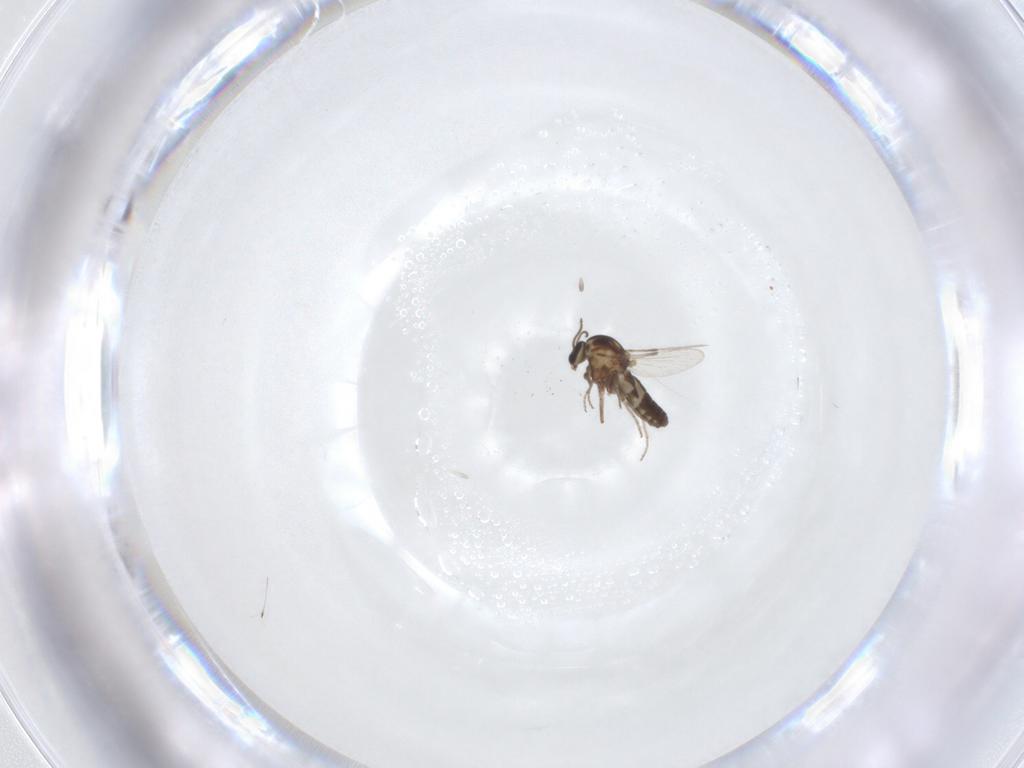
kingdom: Animalia
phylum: Arthropoda
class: Insecta
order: Diptera
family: Ceratopogonidae
